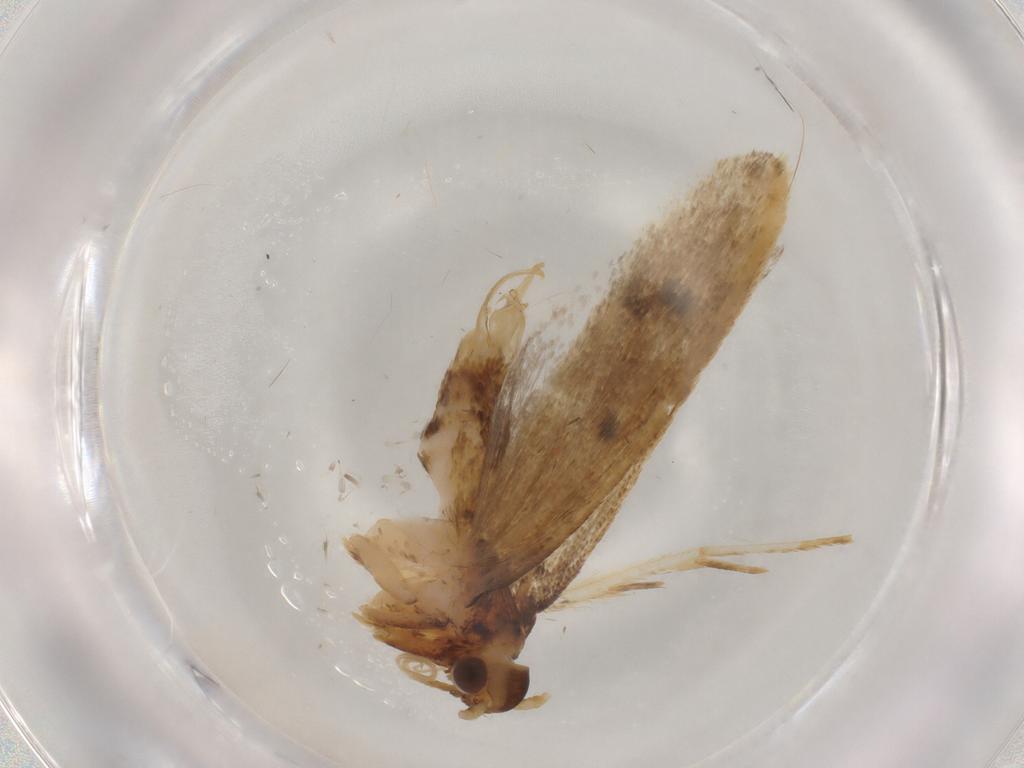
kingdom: Animalia
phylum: Arthropoda
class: Insecta
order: Lepidoptera
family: Lecithoceridae
